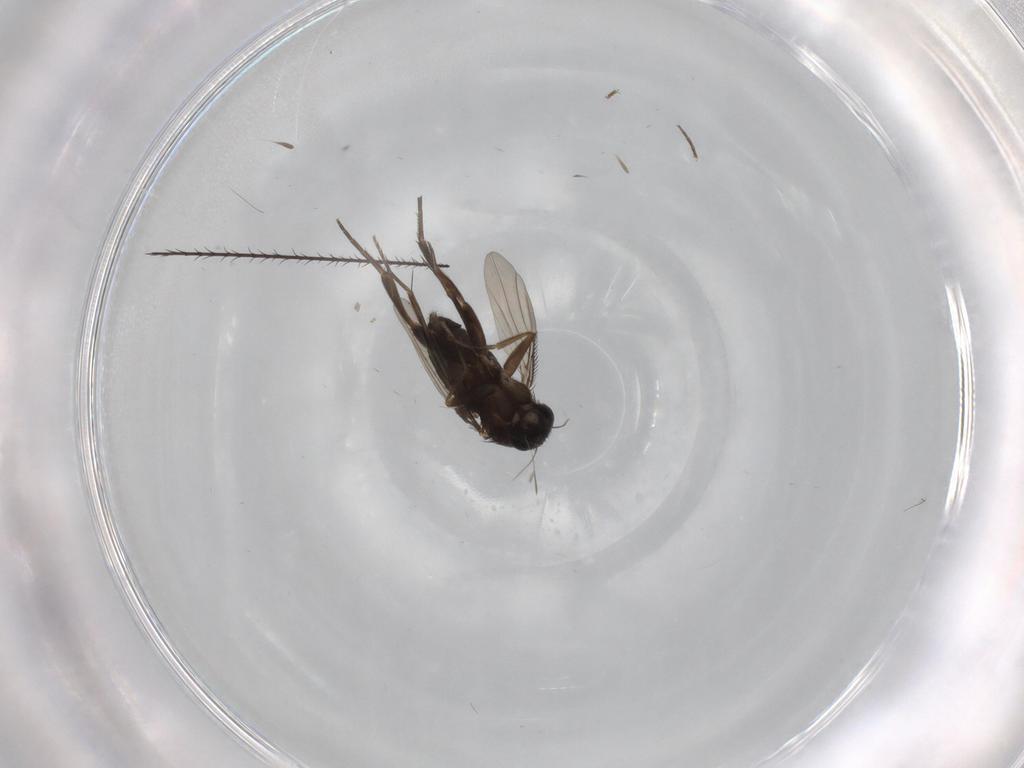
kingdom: Animalia
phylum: Arthropoda
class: Insecta
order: Diptera
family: Phoridae
